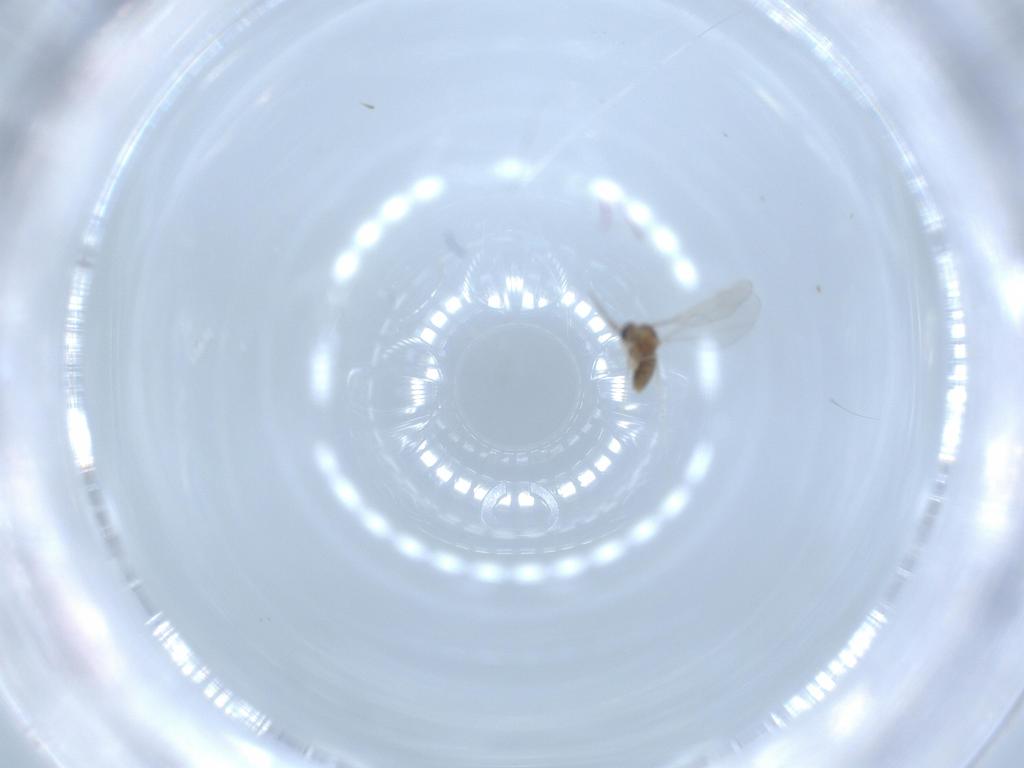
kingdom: Animalia
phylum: Arthropoda
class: Insecta
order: Diptera
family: Cecidomyiidae
